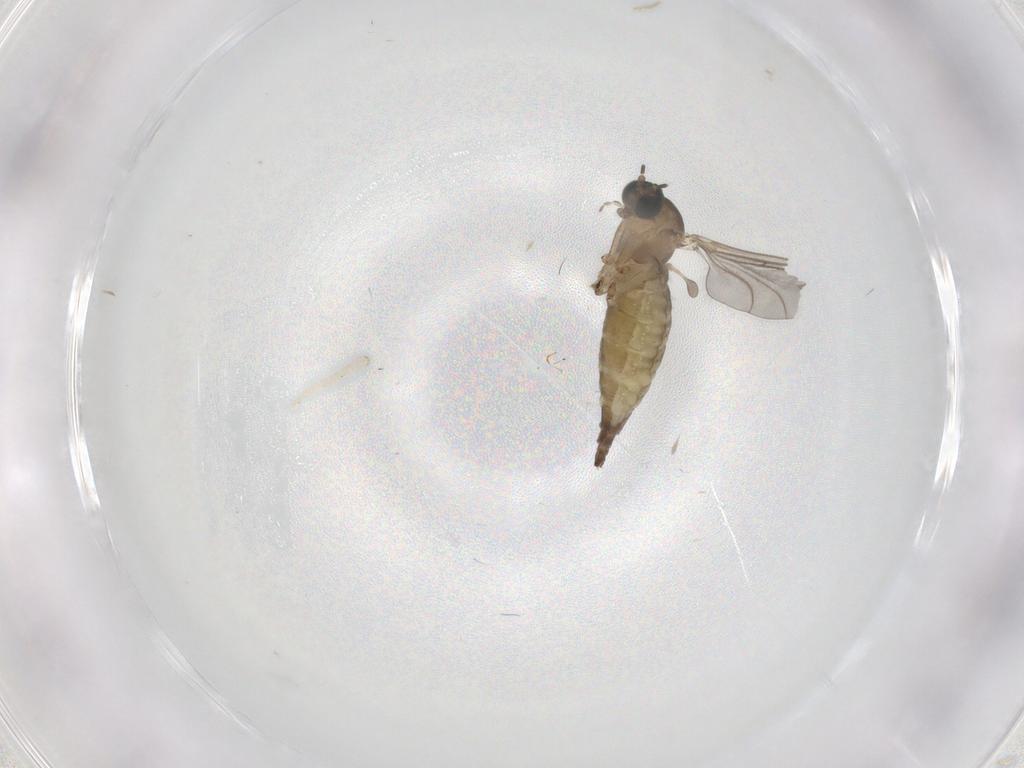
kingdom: Animalia
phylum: Arthropoda
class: Insecta
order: Diptera
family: Sciaridae
